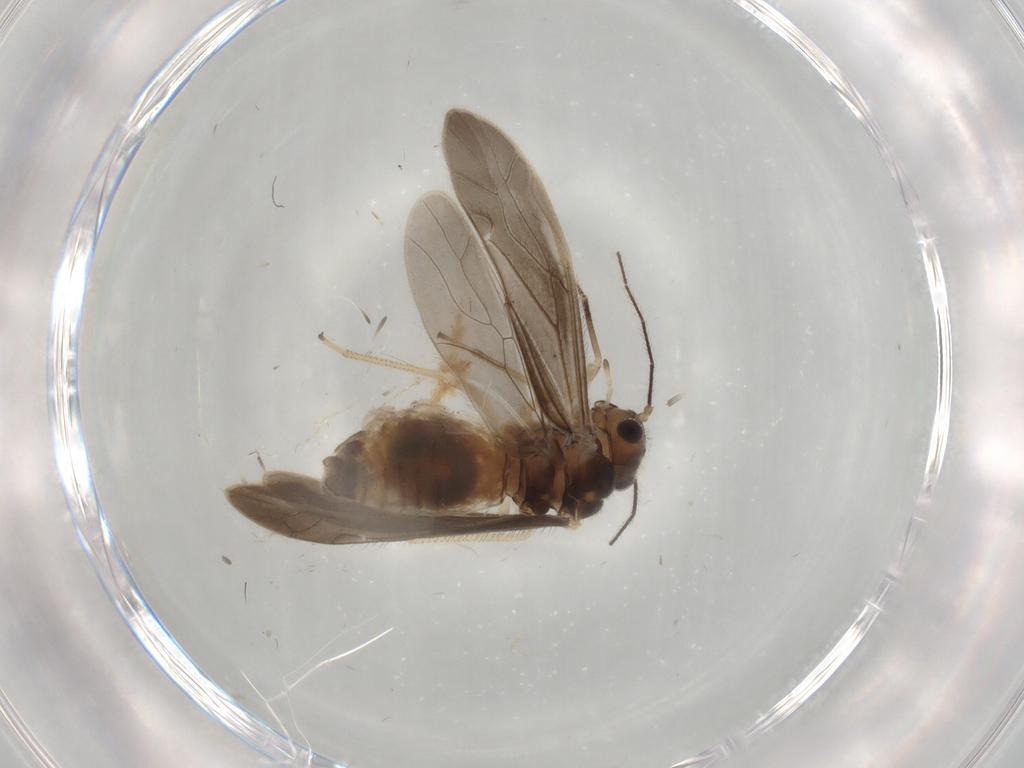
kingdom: Animalia
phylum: Arthropoda
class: Insecta
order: Psocodea
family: Caeciliusidae
